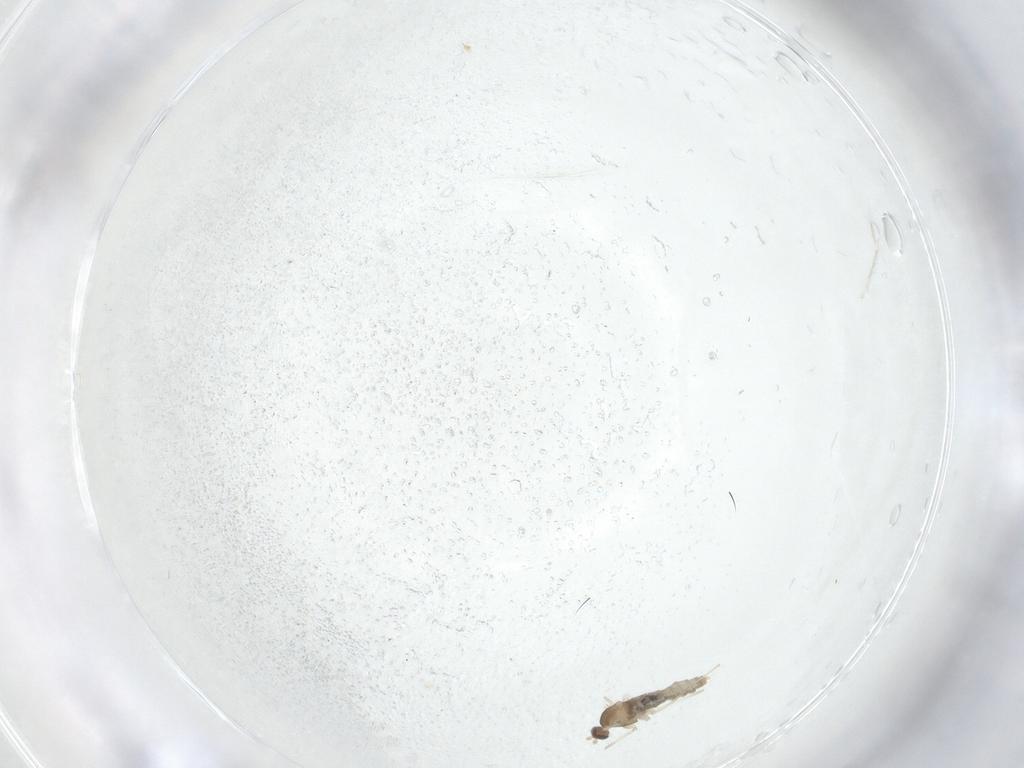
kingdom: Animalia
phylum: Arthropoda
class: Insecta
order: Diptera
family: Cecidomyiidae
